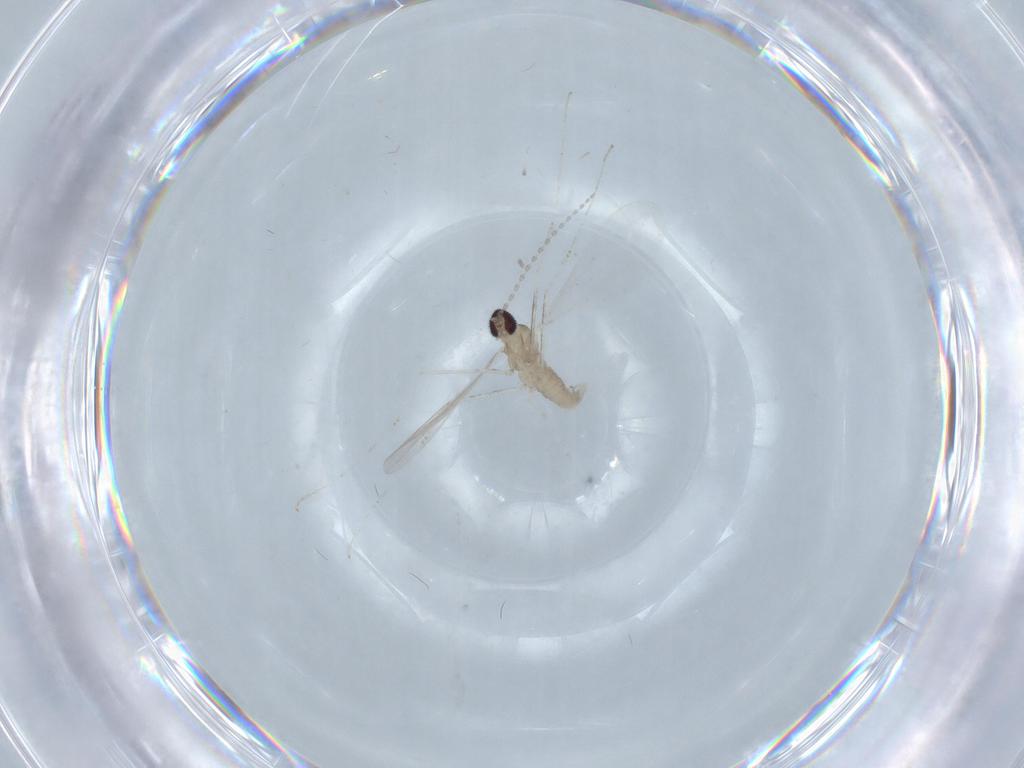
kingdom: Animalia
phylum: Arthropoda
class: Insecta
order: Diptera
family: Cecidomyiidae
